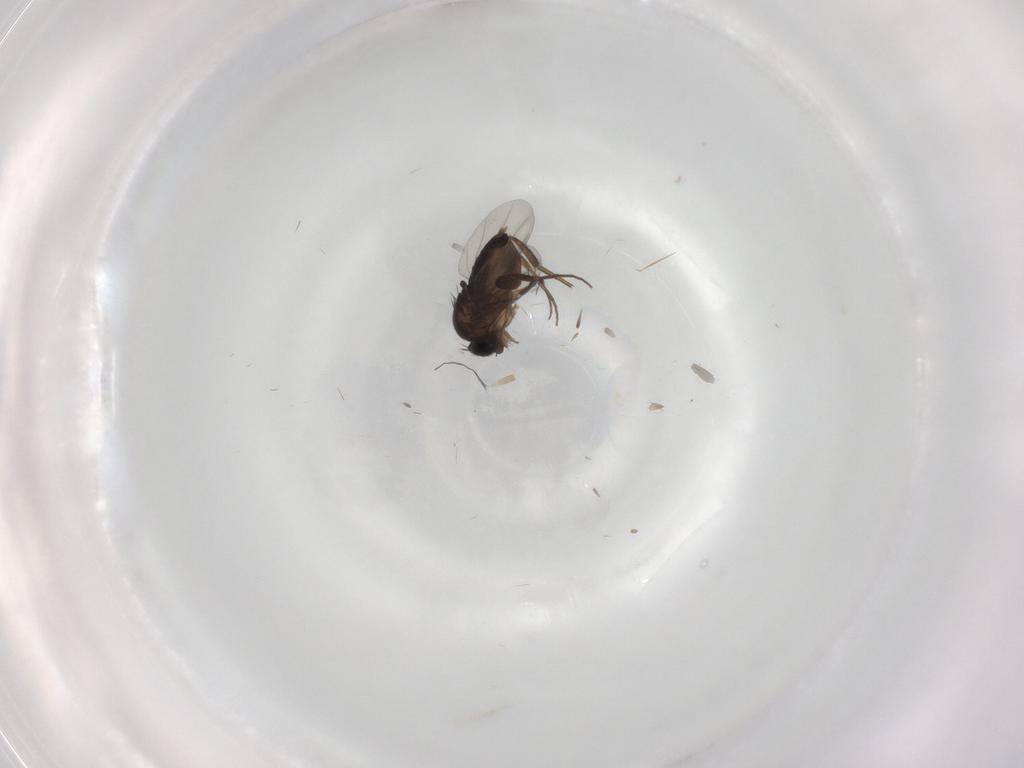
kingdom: Animalia
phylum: Arthropoda
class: Insecta
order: Diptera
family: Phoridae
